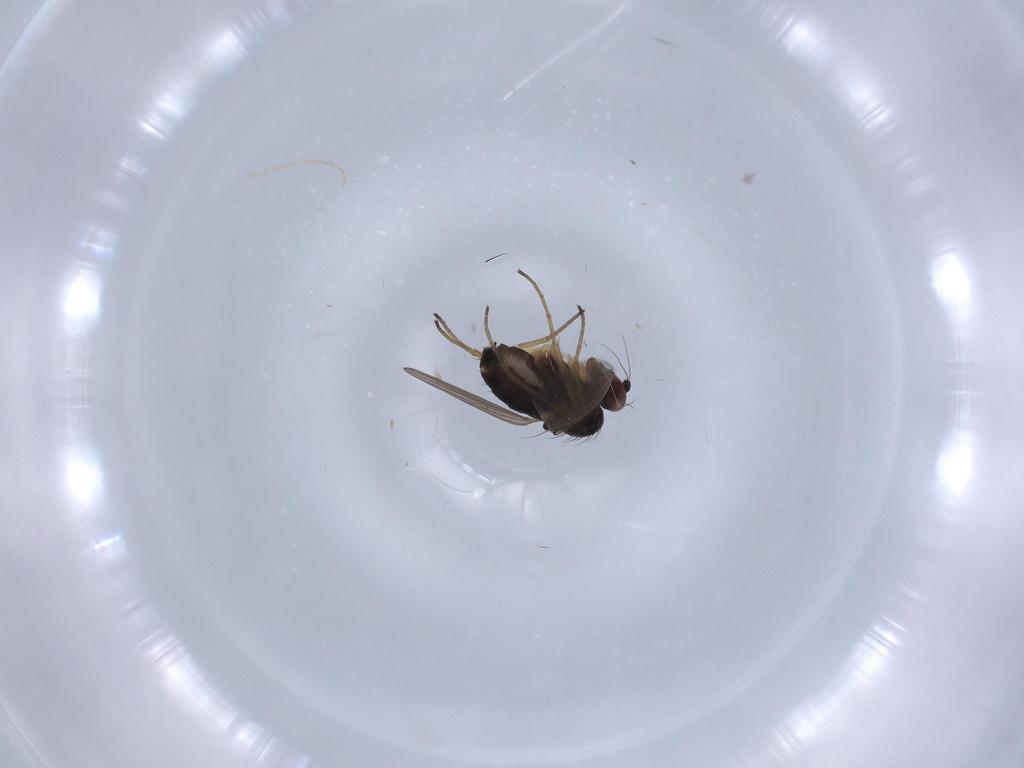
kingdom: Animalia
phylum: Arthropoda
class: Insecta
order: Diptera
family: Dolichopodidae
